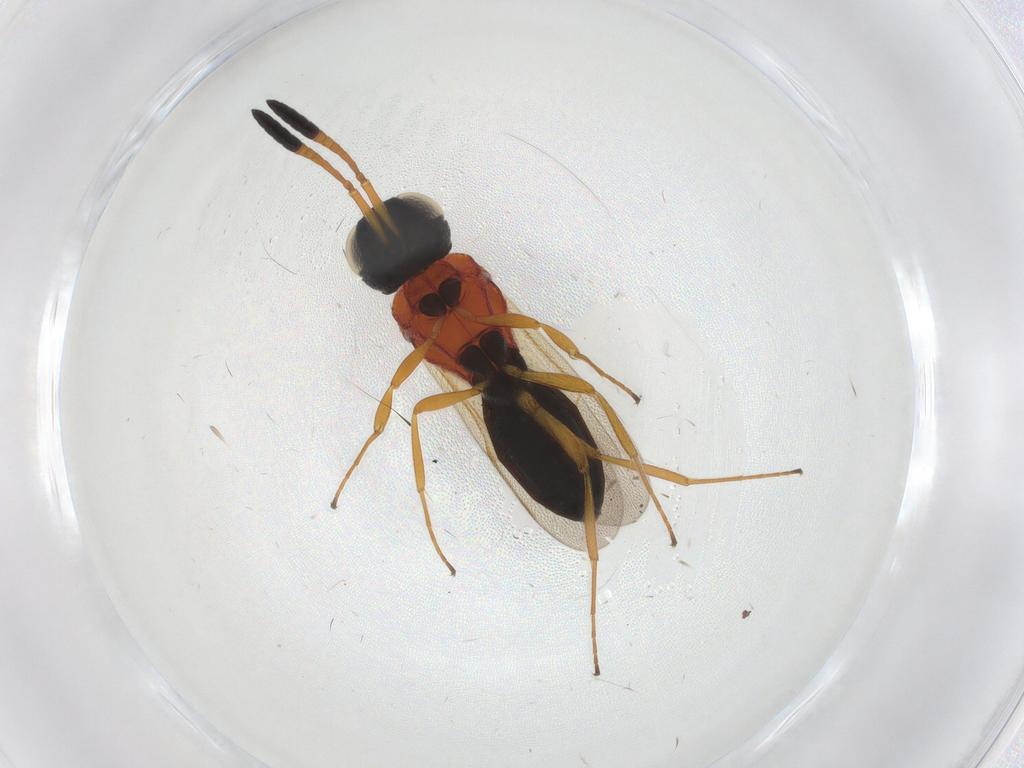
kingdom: Animalia
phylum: Arthropoda
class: Insecta
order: Hymenoptera
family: Scelionidae
